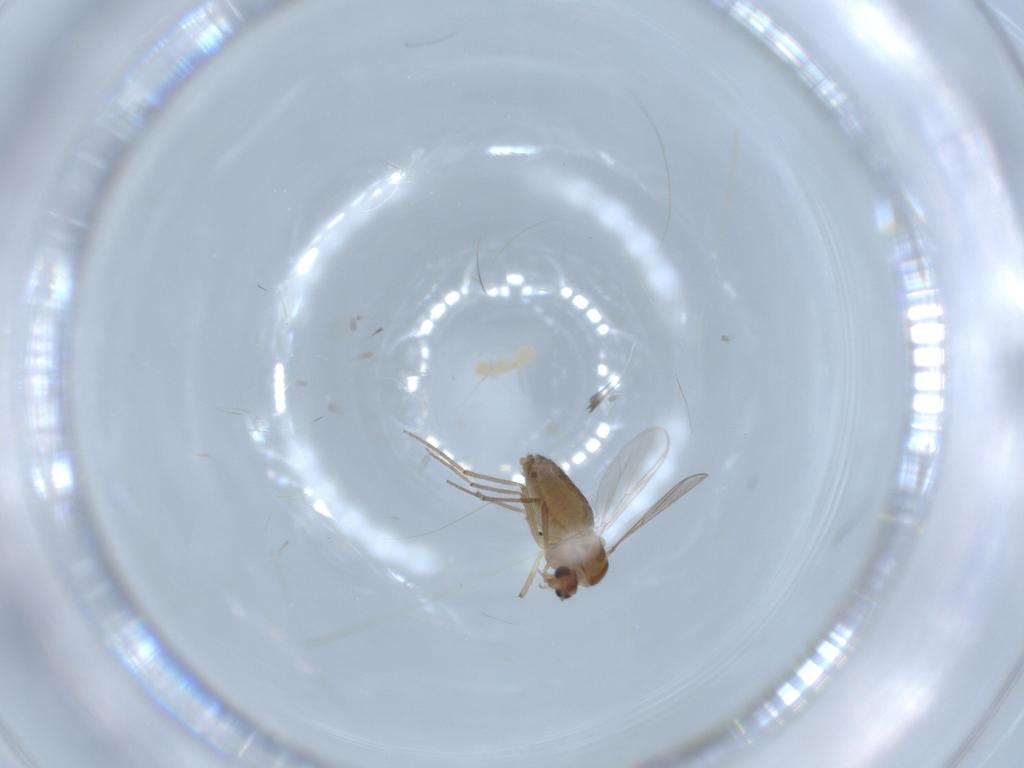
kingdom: Animalia
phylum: Arthropoda
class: Insecta
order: Diptera
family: Chironomidae
